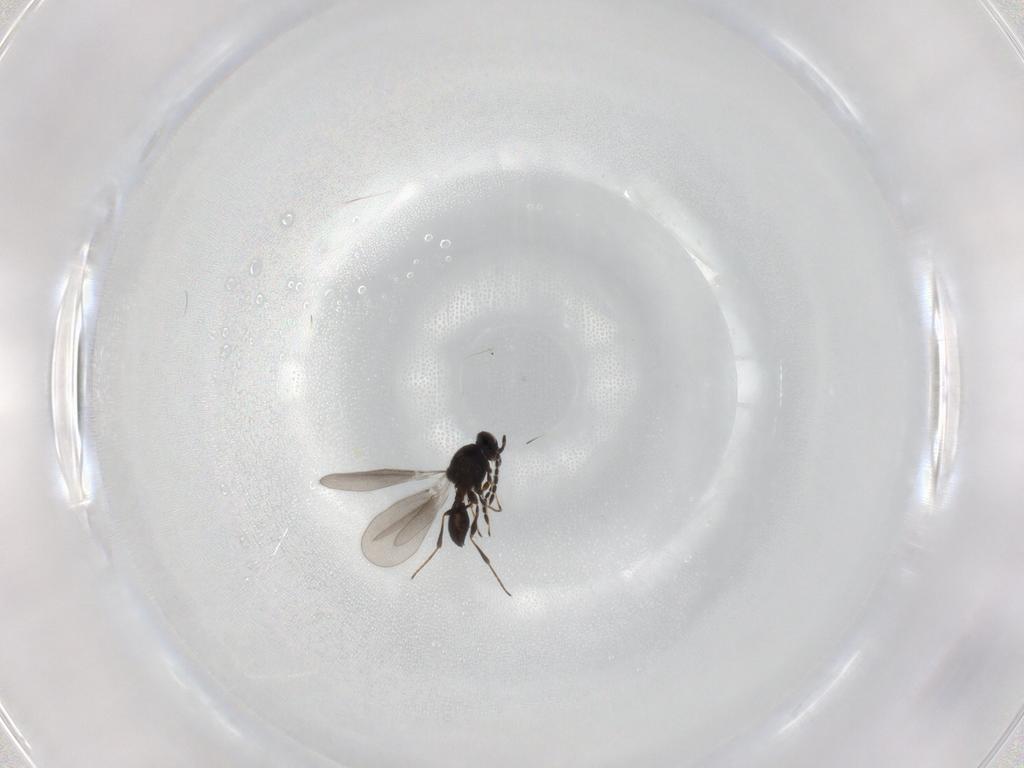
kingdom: Animalia
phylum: Arthropoda
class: Insecta
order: Hymenoptera
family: Platygastridae
